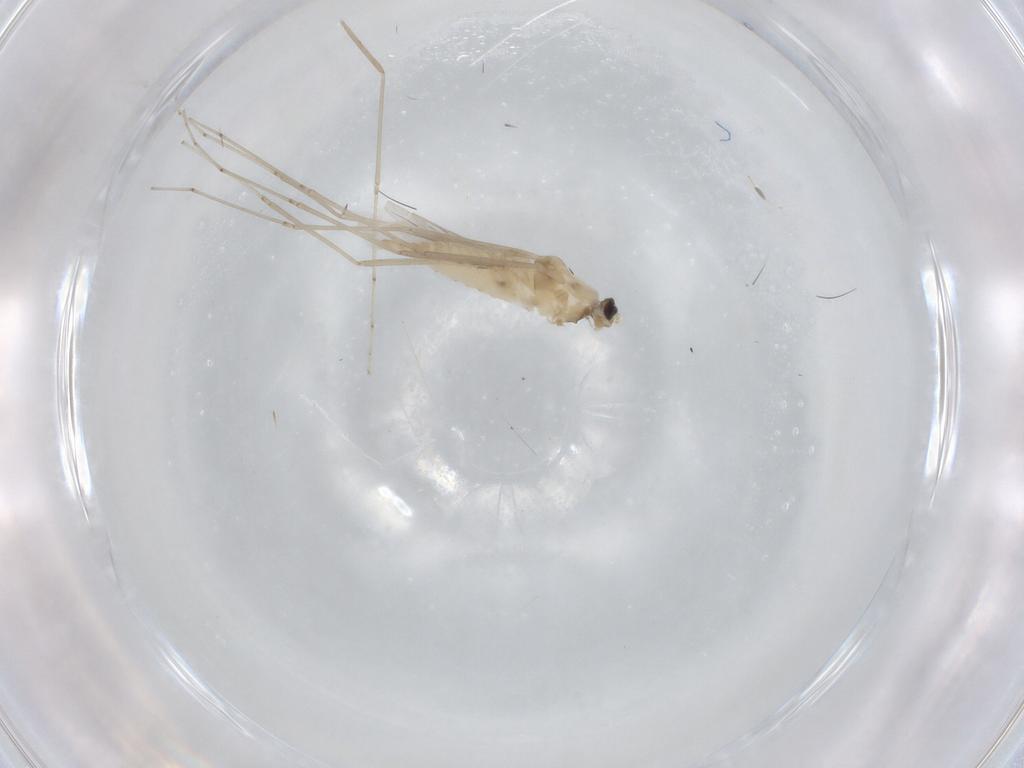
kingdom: Animalia
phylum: Arthropoda
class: Insecta
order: Diptera
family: Cecidomyiidae
